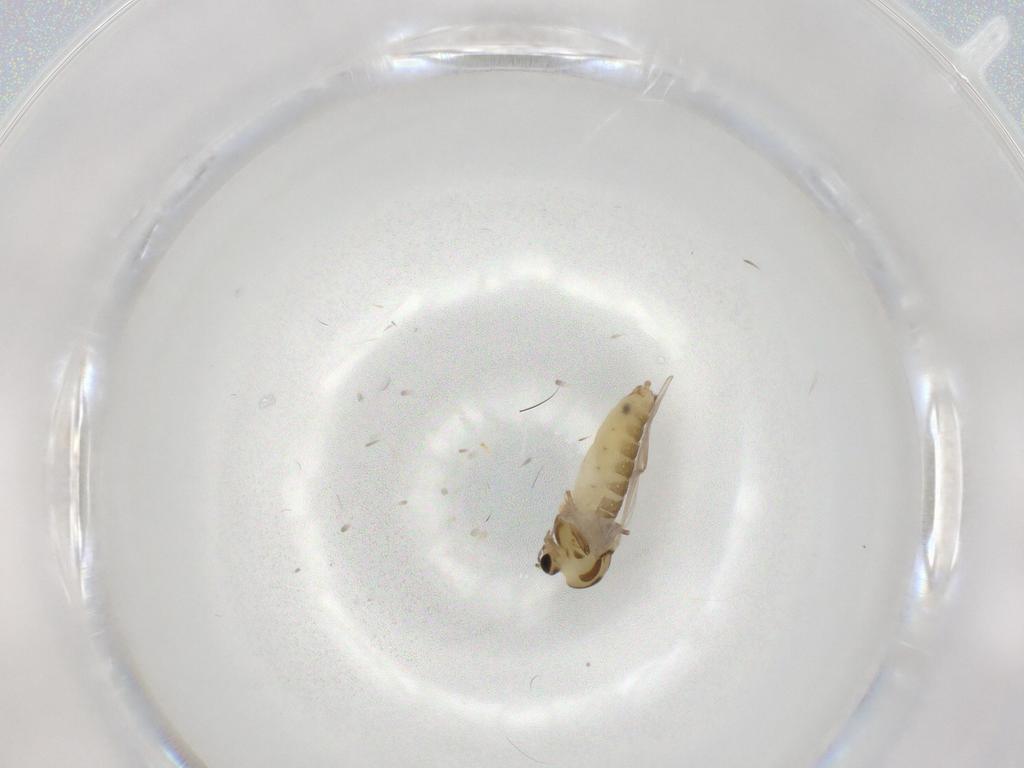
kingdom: Animalia
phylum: Arthropoda
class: Insecta
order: Diptera
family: Chironomidae
